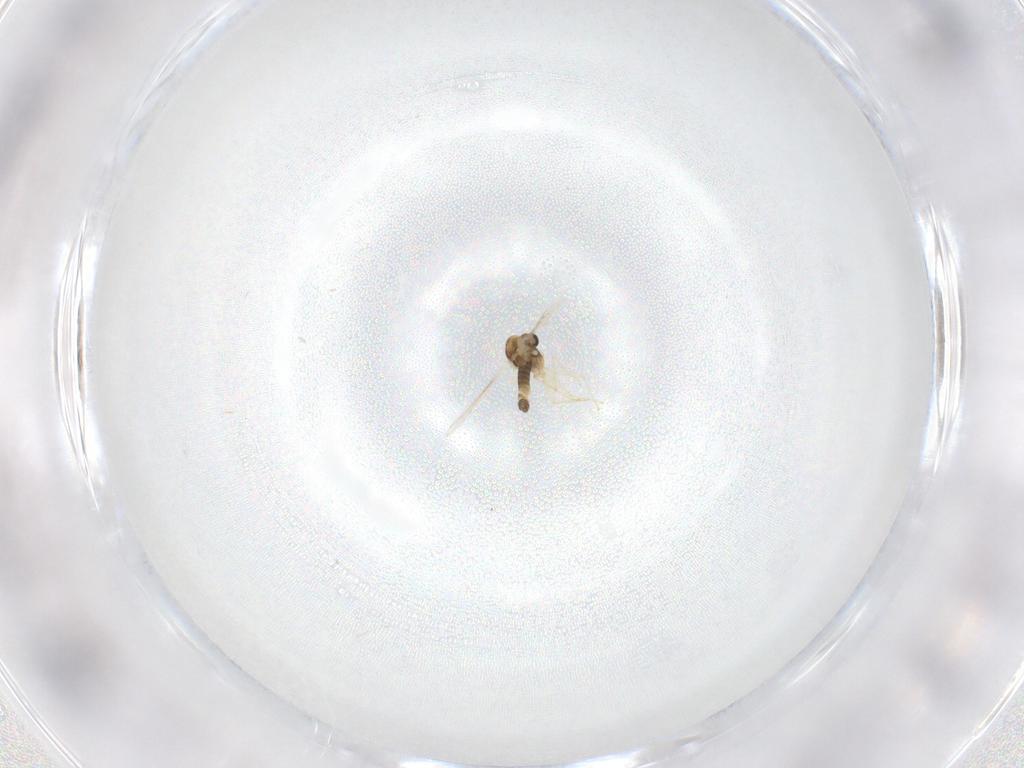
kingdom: Animalia
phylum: Arthropoda
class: Insecta
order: Diptera
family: Chironomidae
